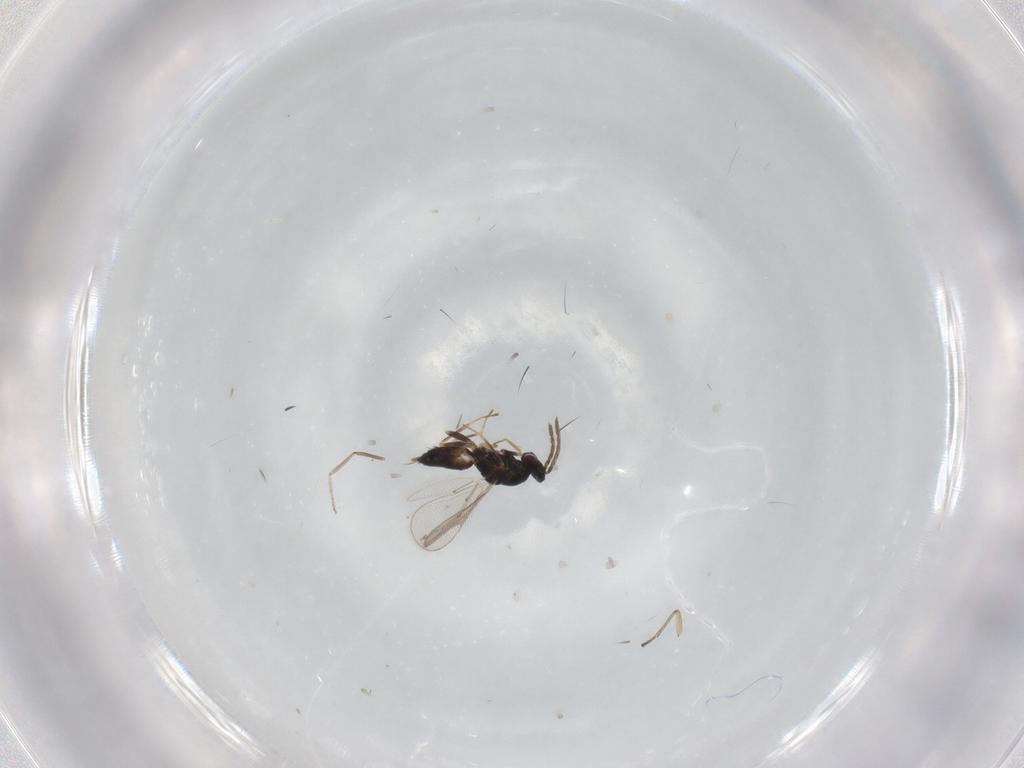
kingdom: Animalia
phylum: Arthropoda
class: Insecta
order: Hymenoptera
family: Eulophidae
